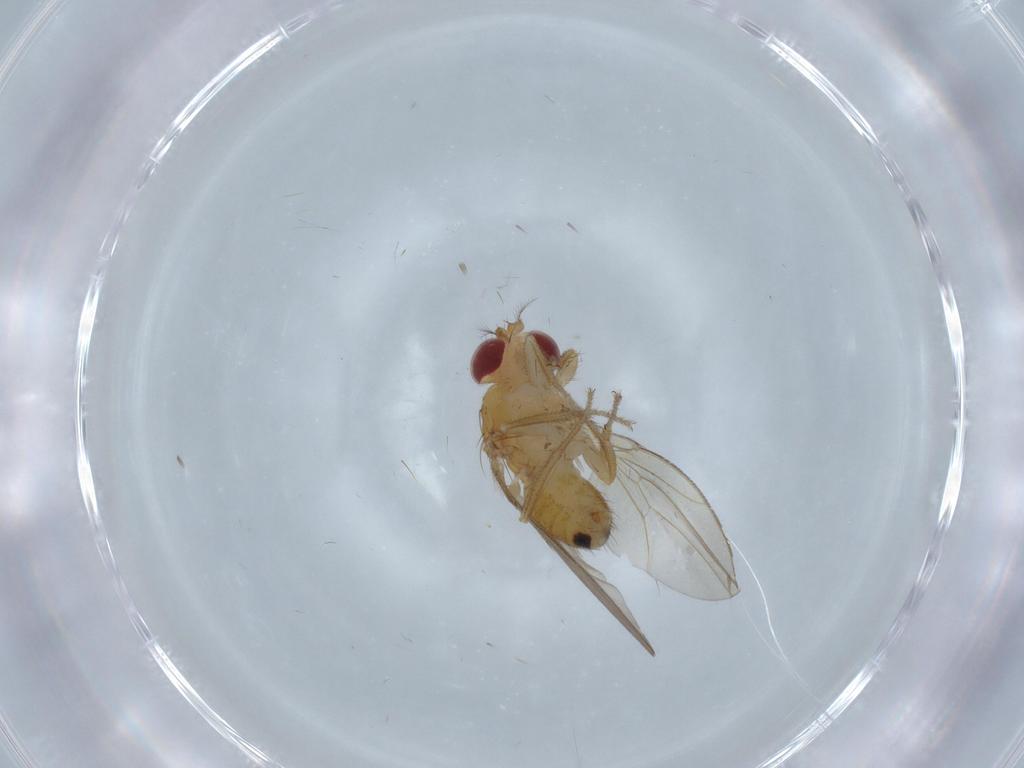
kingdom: Animalia
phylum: Arthropoda
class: Insecta
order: Diptera
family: Drosophilidae
